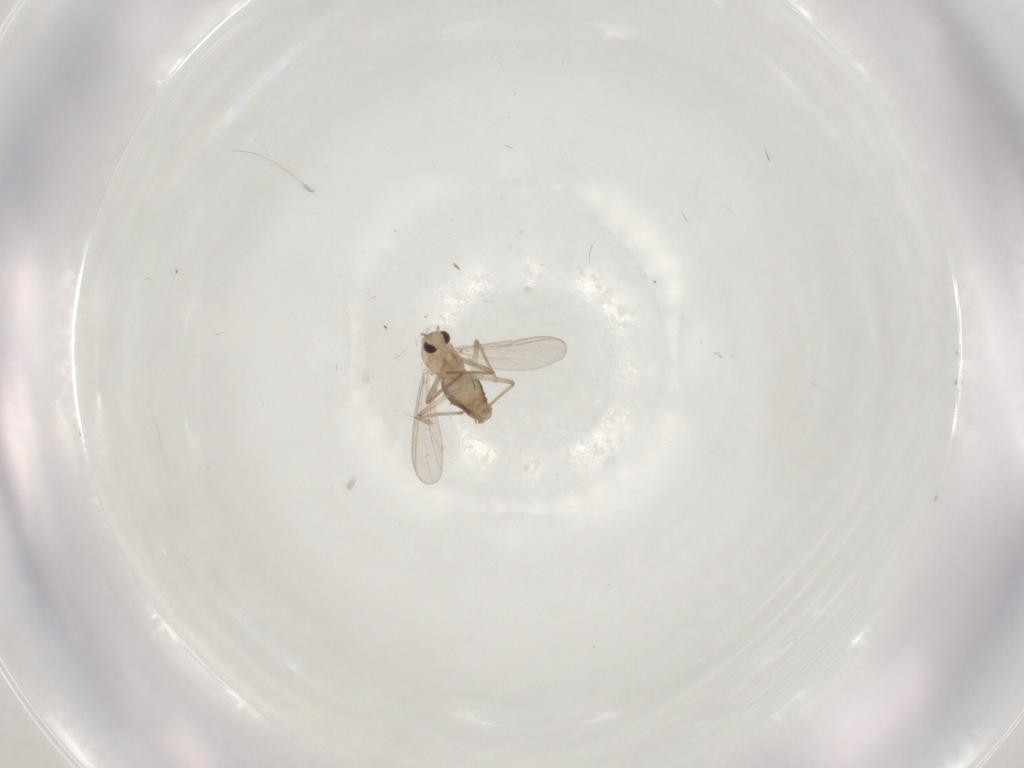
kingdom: Animalia
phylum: Arthropoda
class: Insecta
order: Diptera
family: Chironomidae
